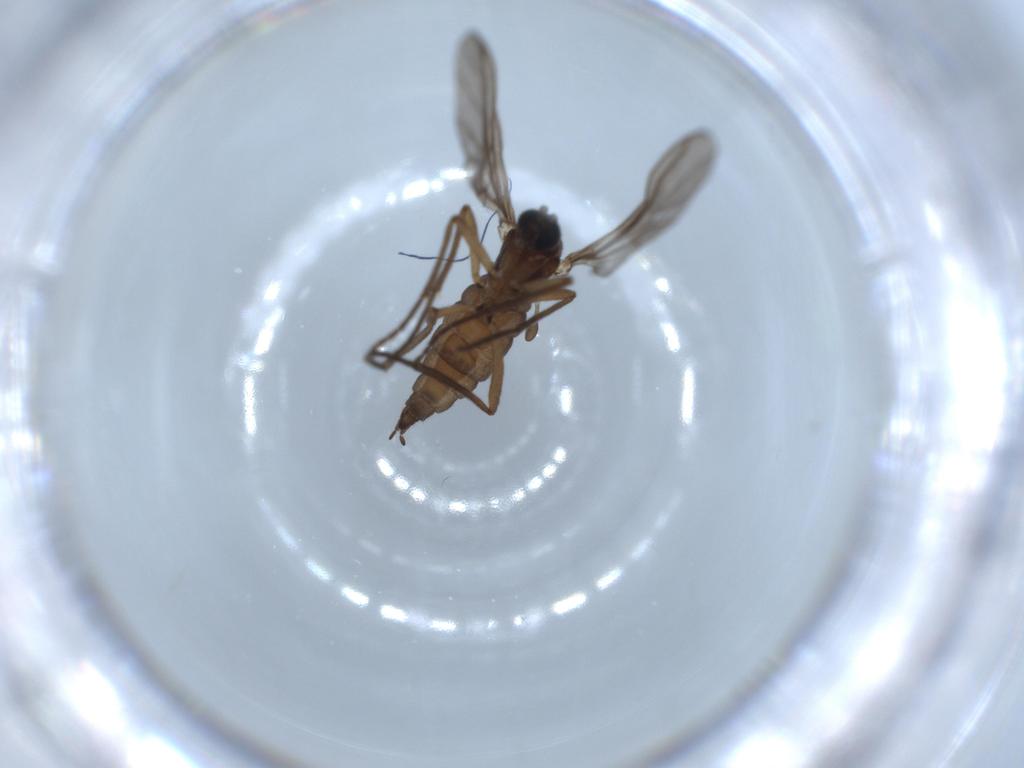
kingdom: Animalia
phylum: Arthropoda
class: Insecta
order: Diptera
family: Sciaridae
